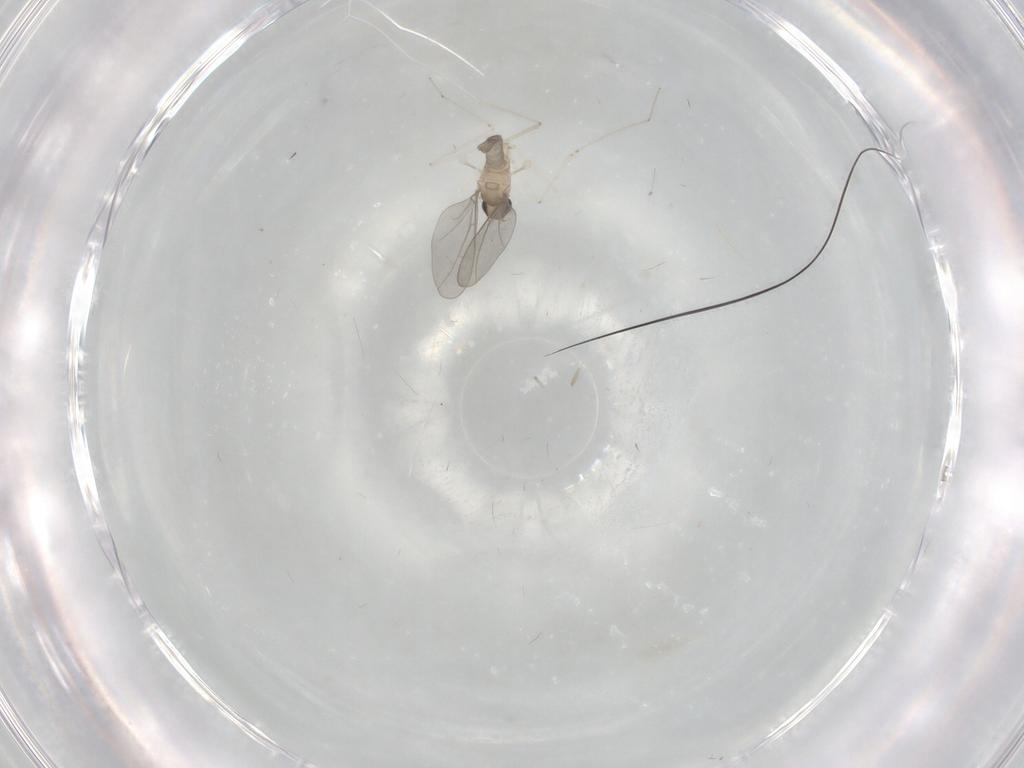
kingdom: Animalia
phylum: Arthropoda
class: Insecta
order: Diptera
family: Cecidomyiidae
